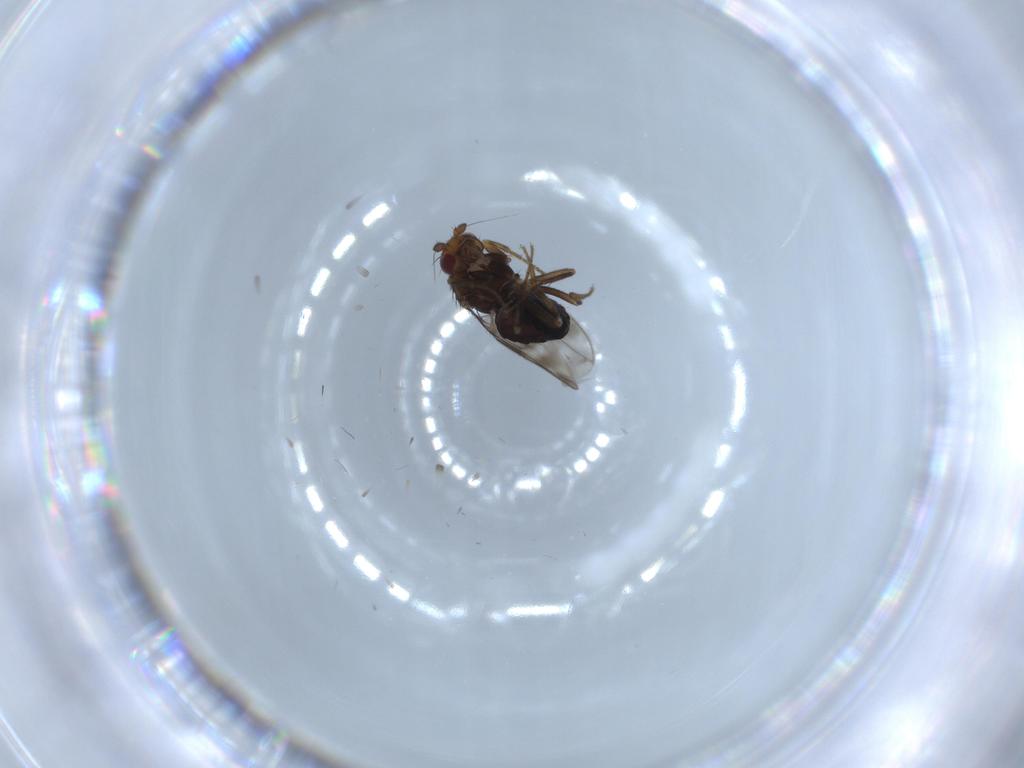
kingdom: Animalia
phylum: Arthropoda
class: Insecta
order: Diptera
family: Sphaeroceridae
